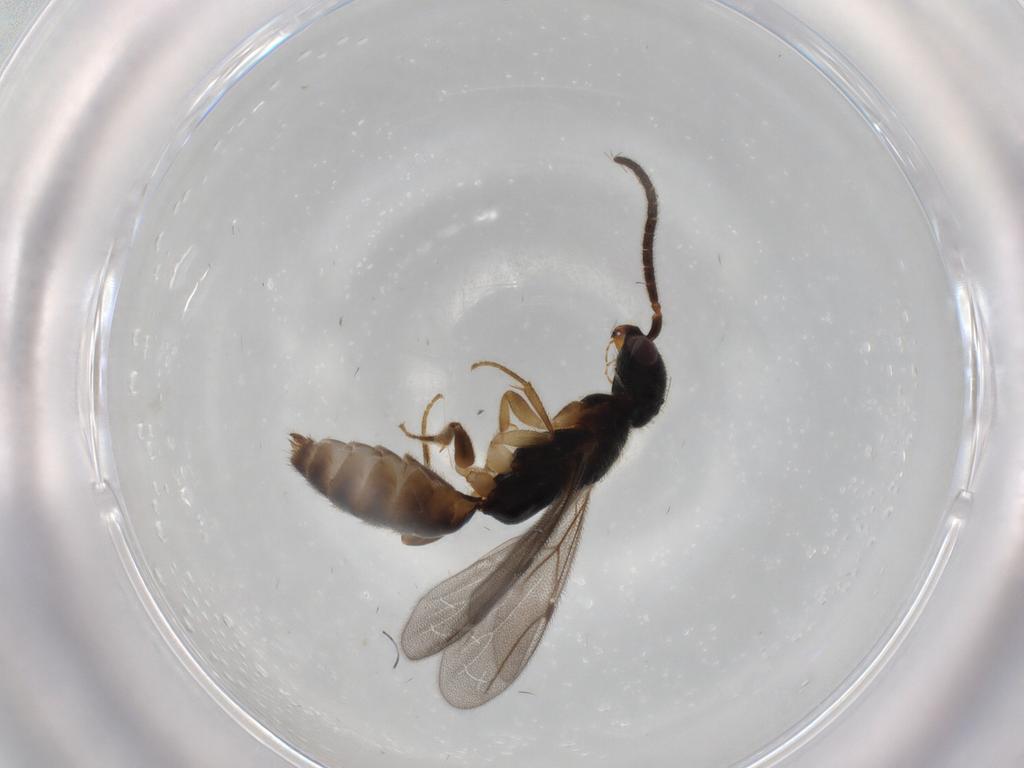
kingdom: Animalia
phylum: Arthropoda
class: Insecta
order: Hymenoptera
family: Bethylidae
